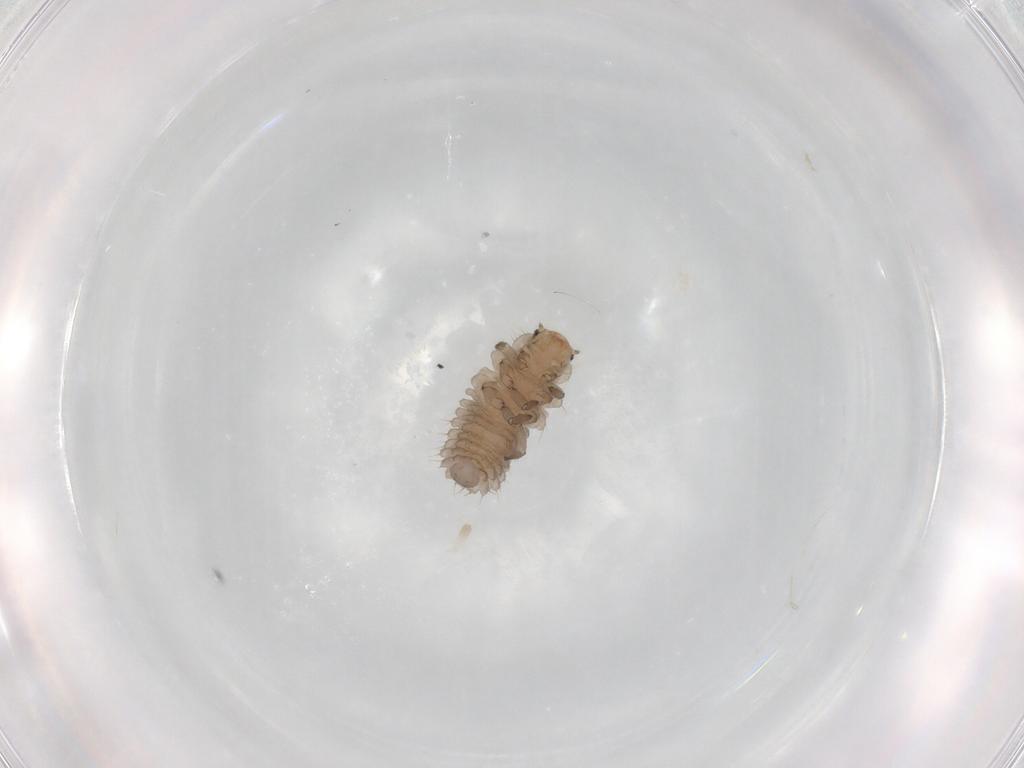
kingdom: Animalia
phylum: Arthropoda
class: Insecta
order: Coleoptera
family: Coccinellidae
